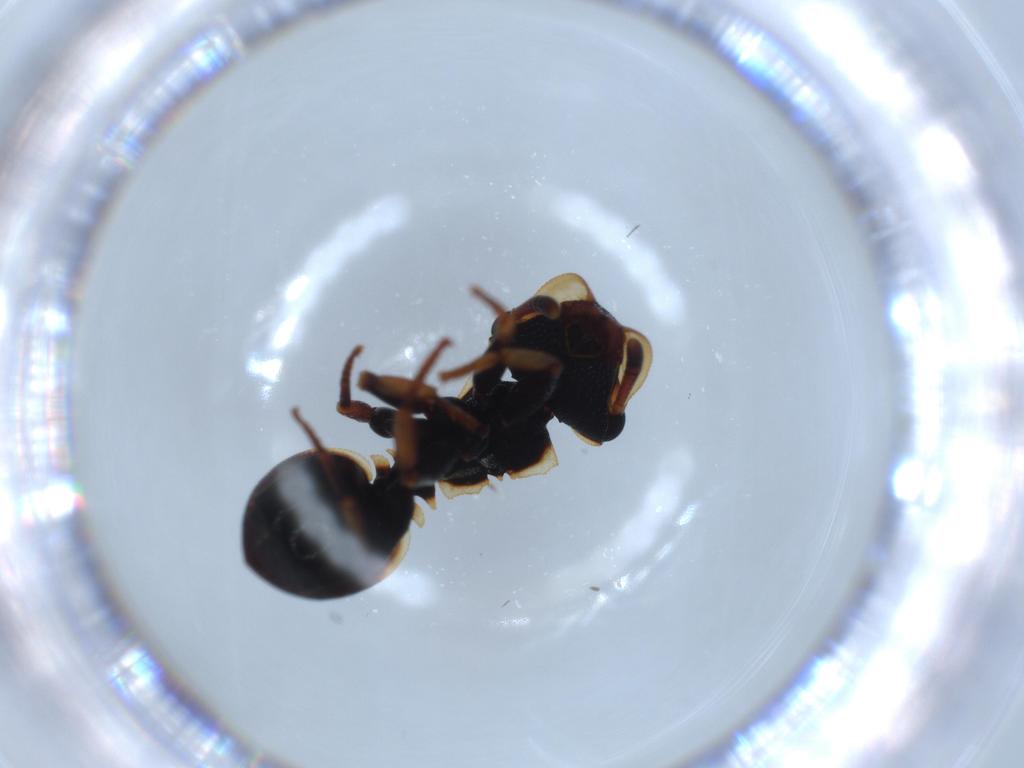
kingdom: Animalia
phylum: Arthropoda
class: Insecta
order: Hymenoptera
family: Formicidae
